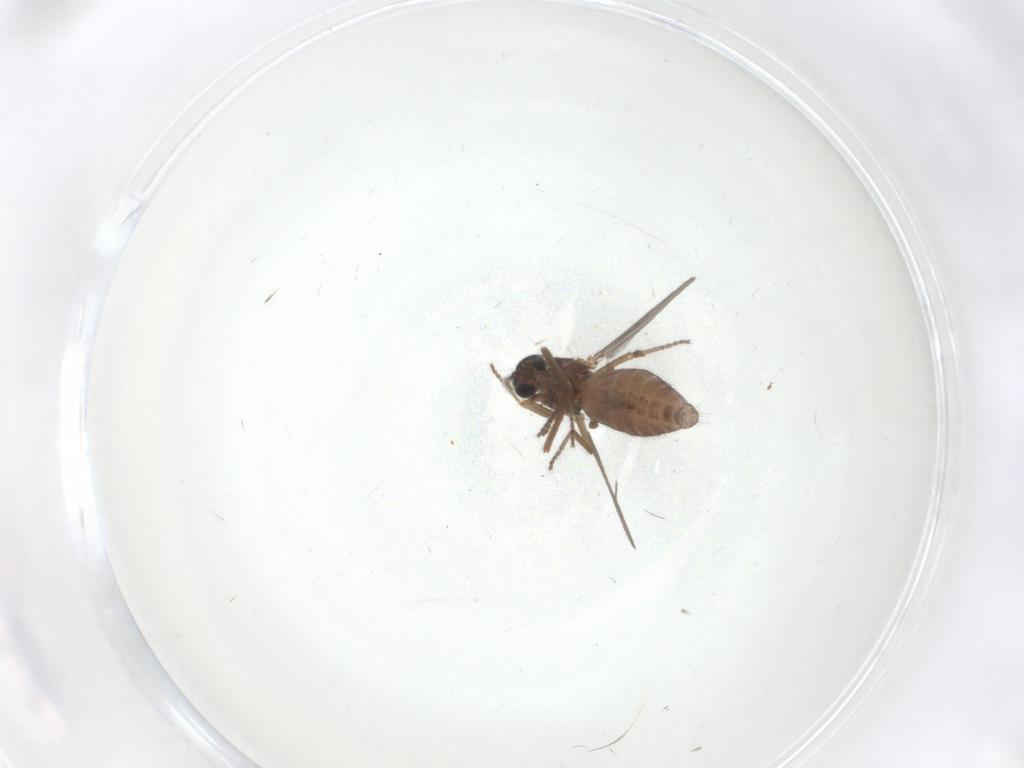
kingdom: Animalia
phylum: Arthropoda
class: Insecta
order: Diptera
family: Ceratopogonidae
